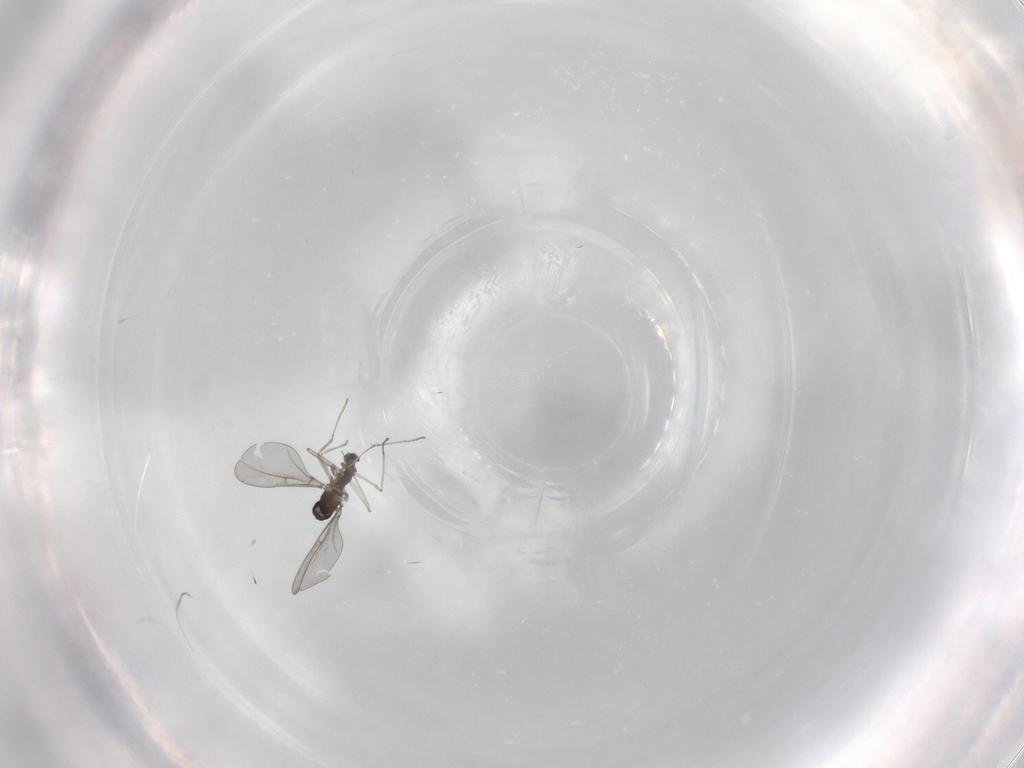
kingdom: Animalia
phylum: Arthropoda
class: Insecta
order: Diptera
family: Cecidomyiidae
